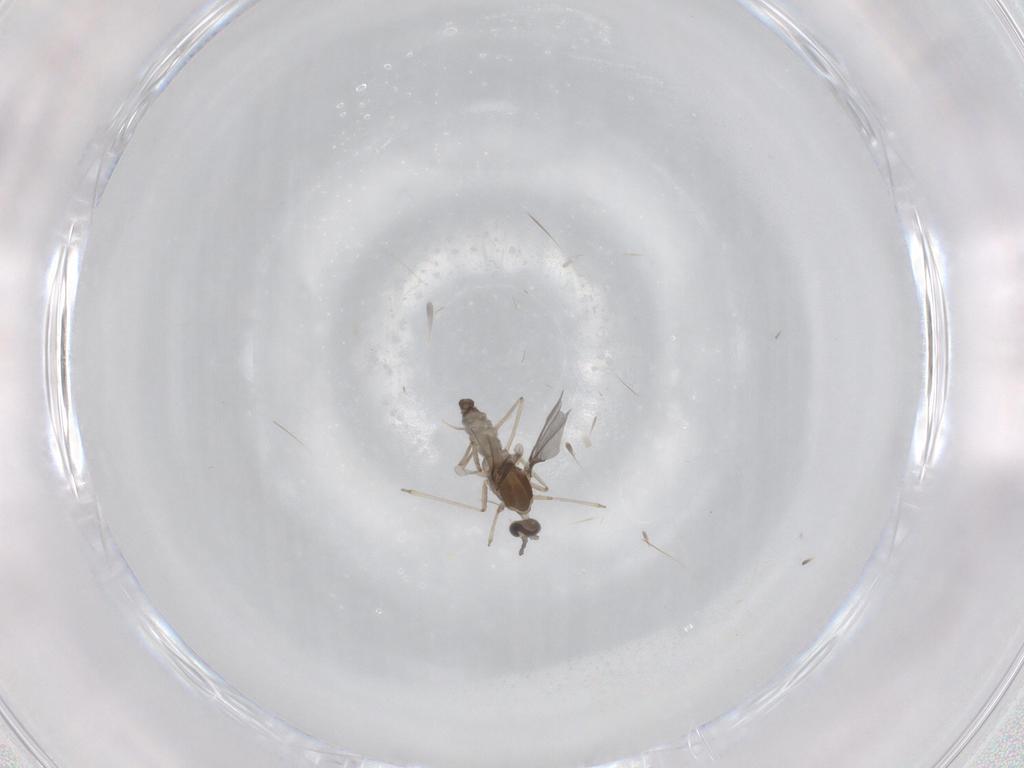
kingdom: Animalia
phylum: Arthropoda
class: Insecta
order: Diptera
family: Cecidomyiidae
